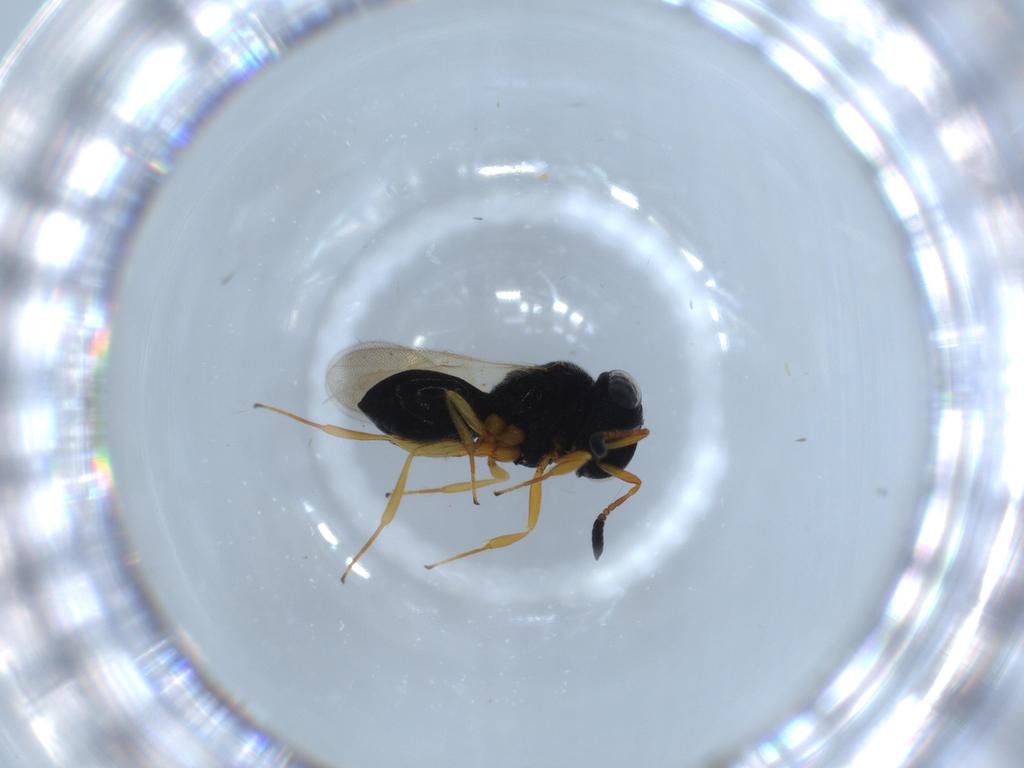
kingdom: Animalia
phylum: Arthropoda
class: Insecta
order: Hymenoptera
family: Scelionidae
